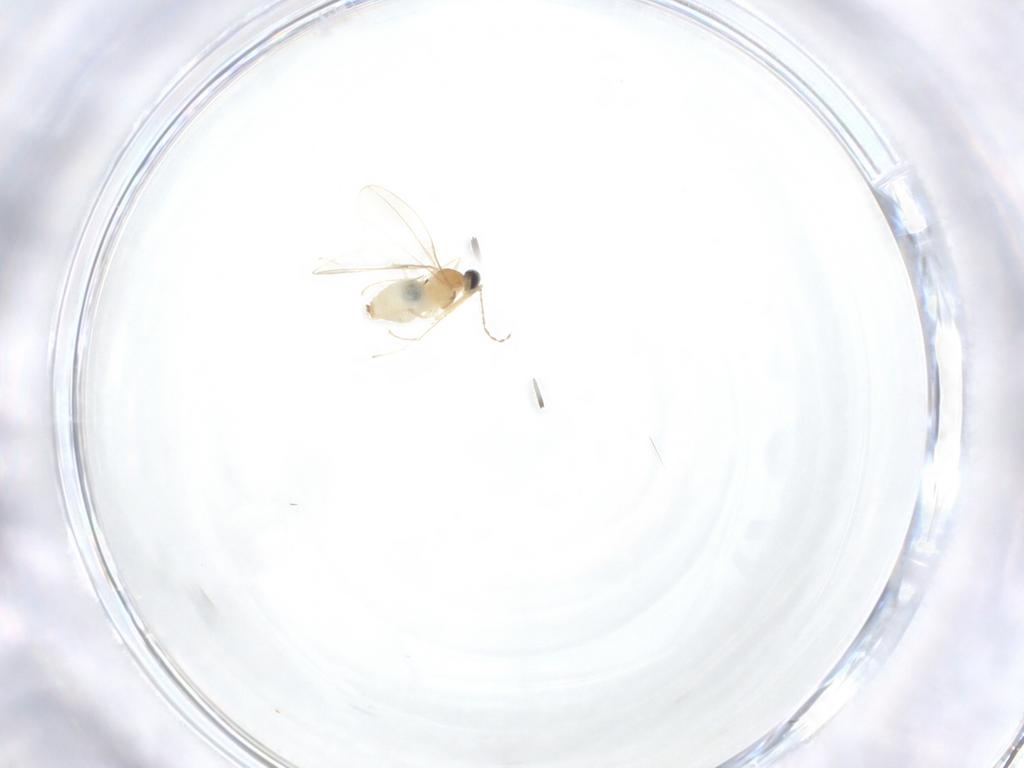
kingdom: Animalia
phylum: Arthropoda
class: Insecta
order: Diptera
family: Cecidomyiidae
